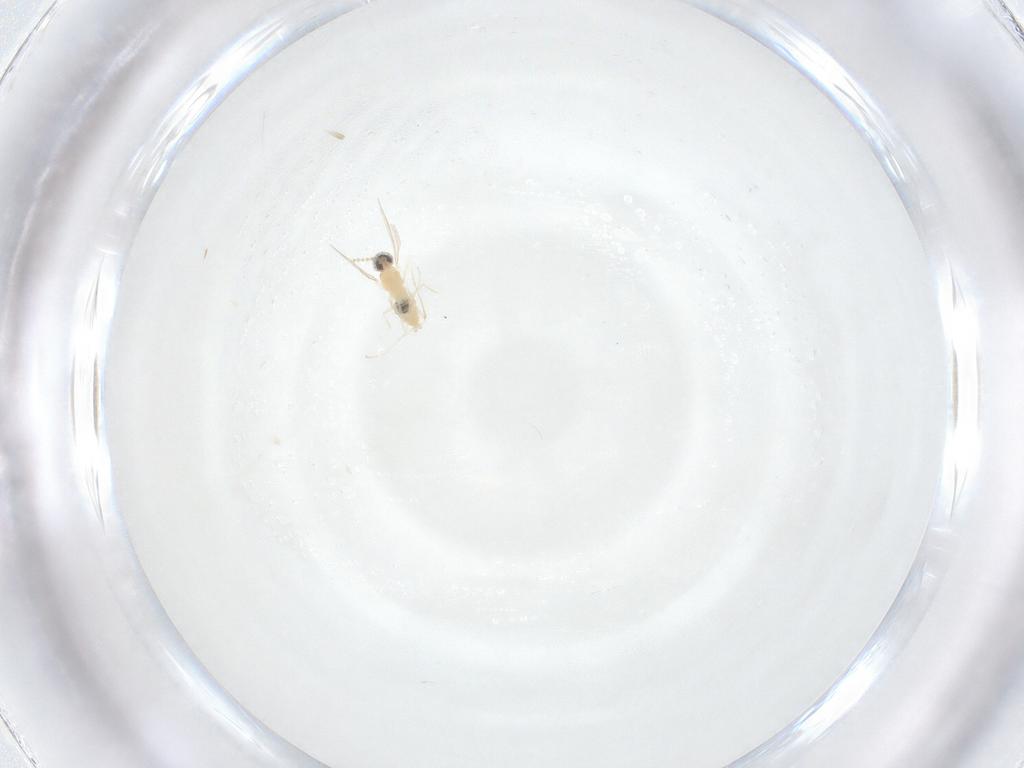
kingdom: Animalia
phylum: Arthropoda
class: Insecta
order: Diptera
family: Cecidomyiidae
